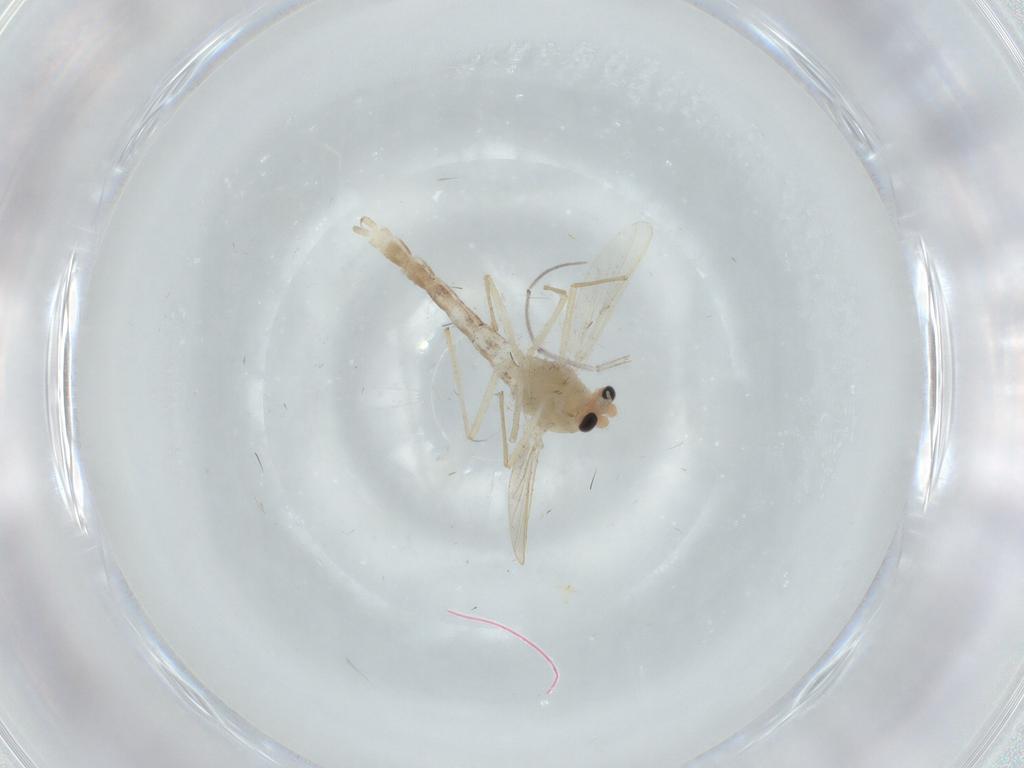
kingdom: Animalia
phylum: Arthropoda
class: Insecta
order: Diptera
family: Chironomidae
